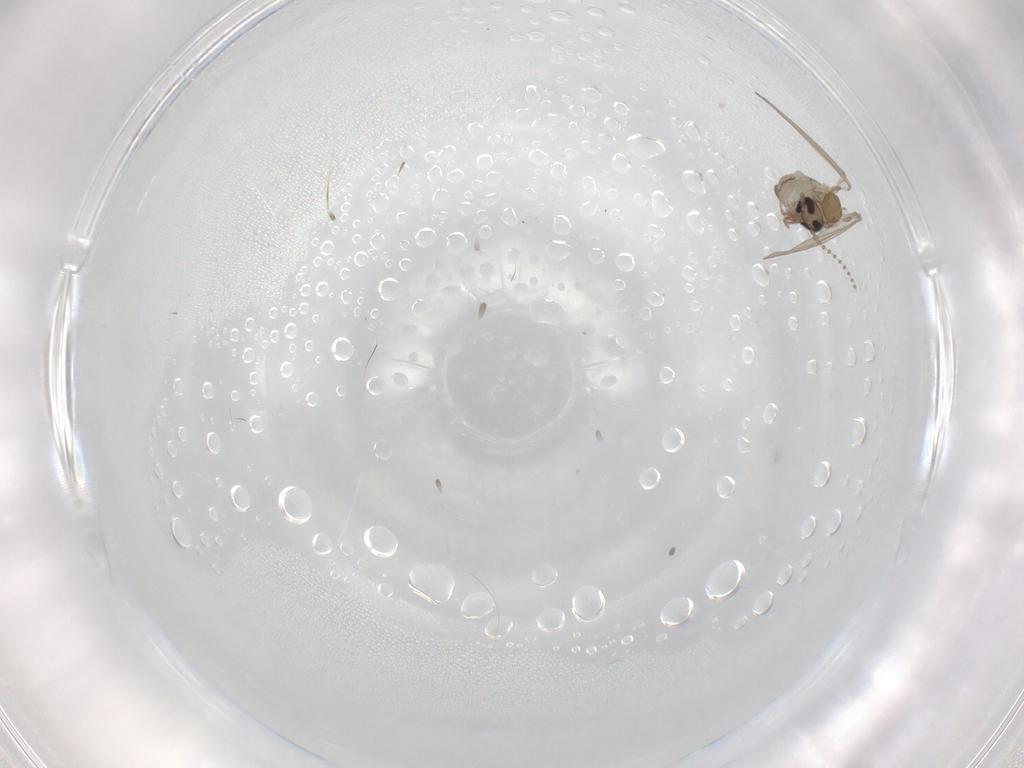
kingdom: Animalia
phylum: Arthropoda
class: Insecta
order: Diptera
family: Psychodidae
